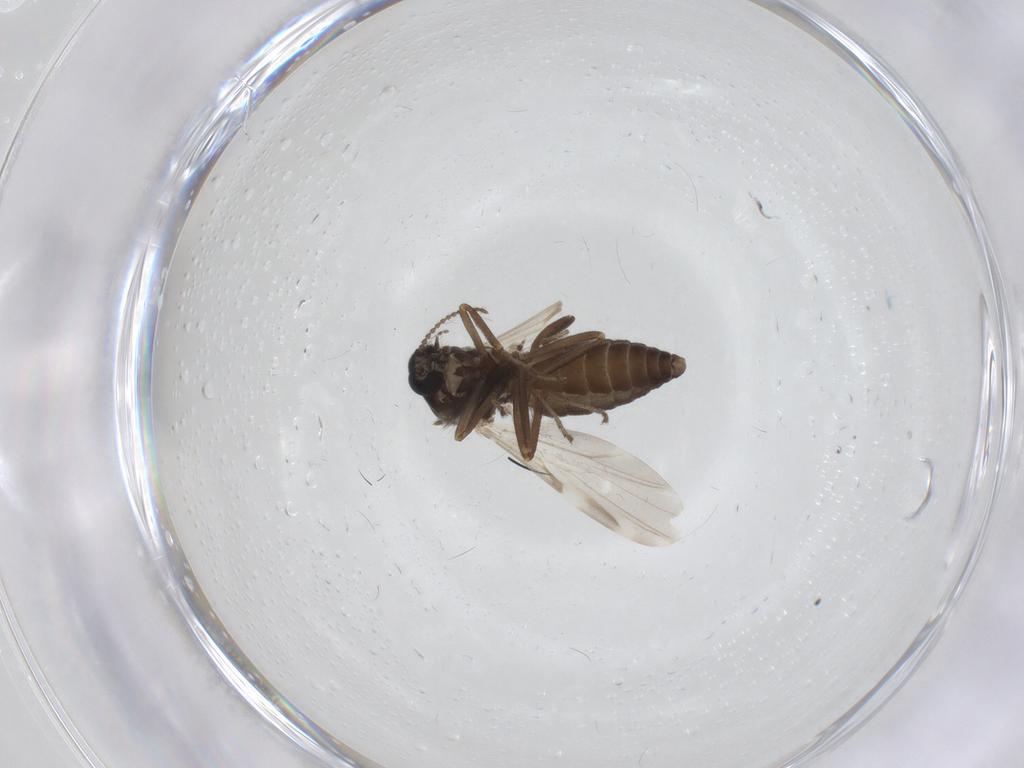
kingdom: Animalia
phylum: Arthropoda
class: Insecta
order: Diptera
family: Ceratopogonidae
